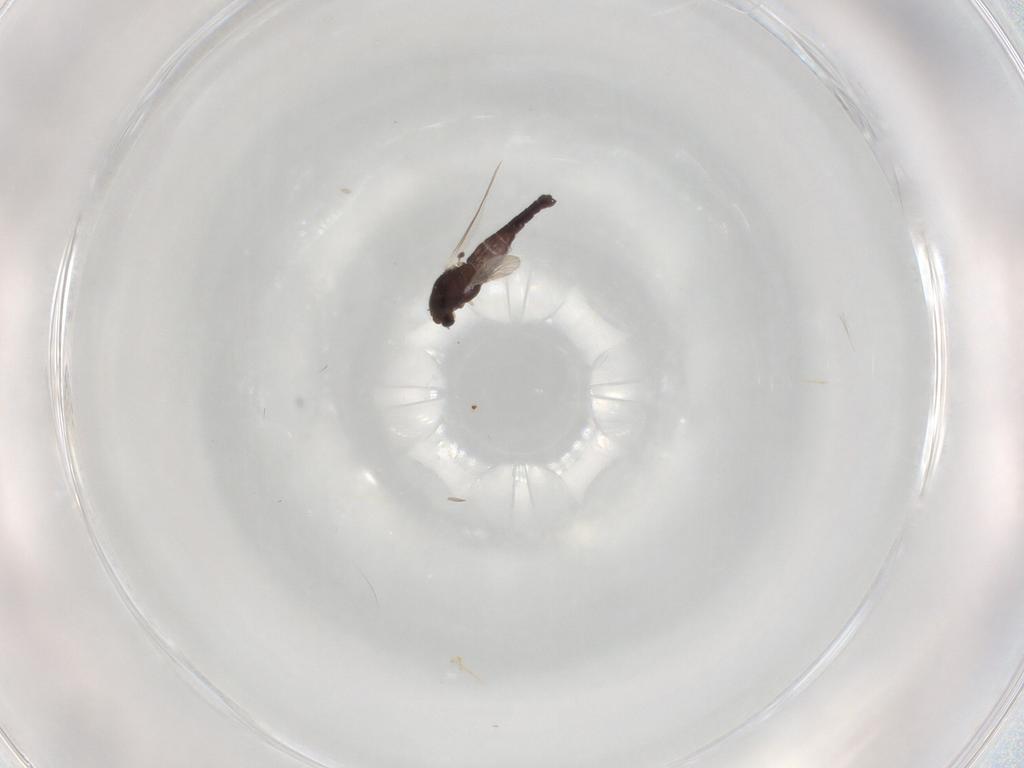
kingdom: Animalia
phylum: Arthropoda
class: Insecta
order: Diptera
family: Chironomidae
